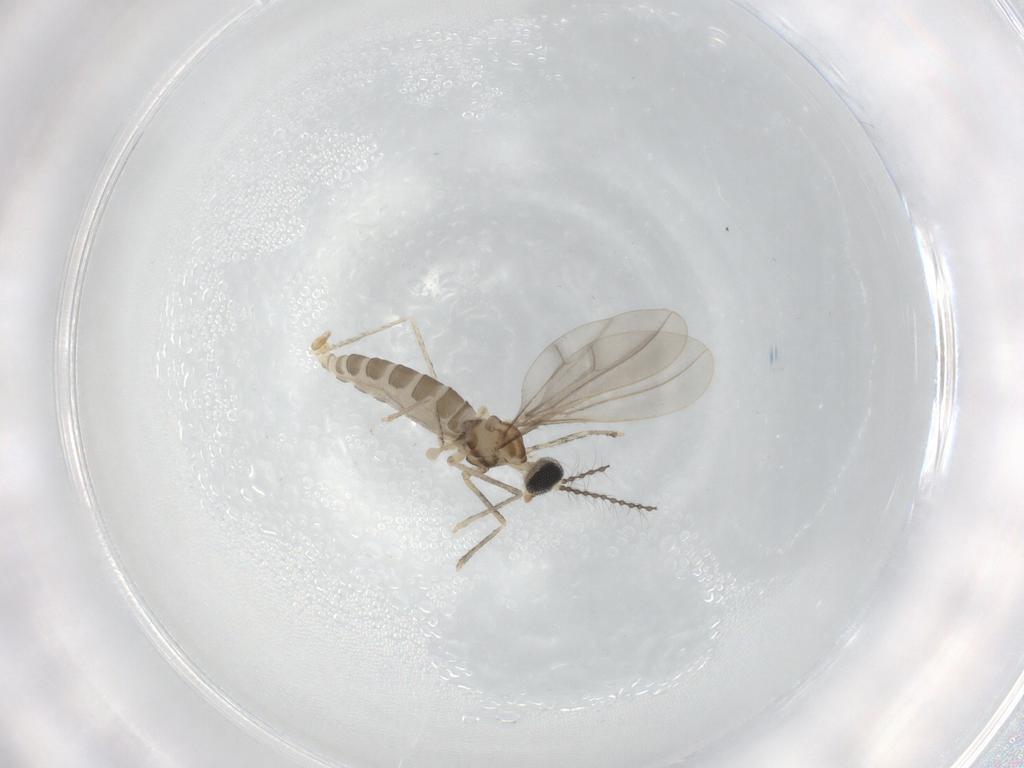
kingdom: Animalia
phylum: Arthropoda
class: Insecta
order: Diptera
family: Cecidomyiidae
